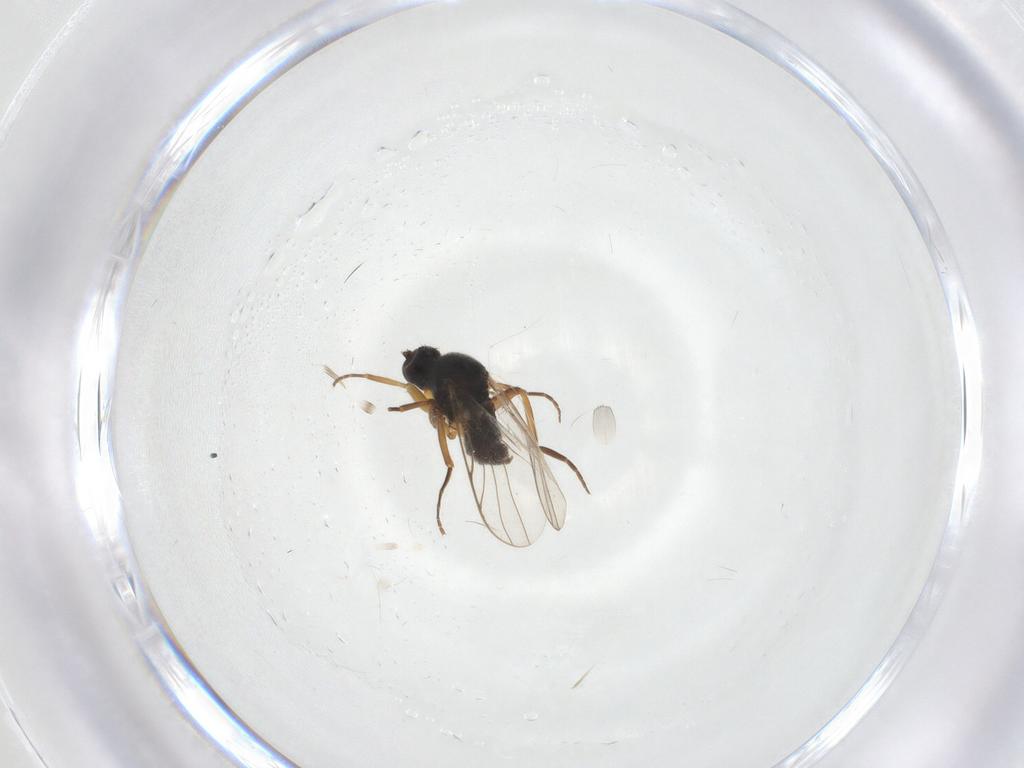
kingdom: Animalia
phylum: Arthropoda
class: Insecta
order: Diptera
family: Hybotidae
